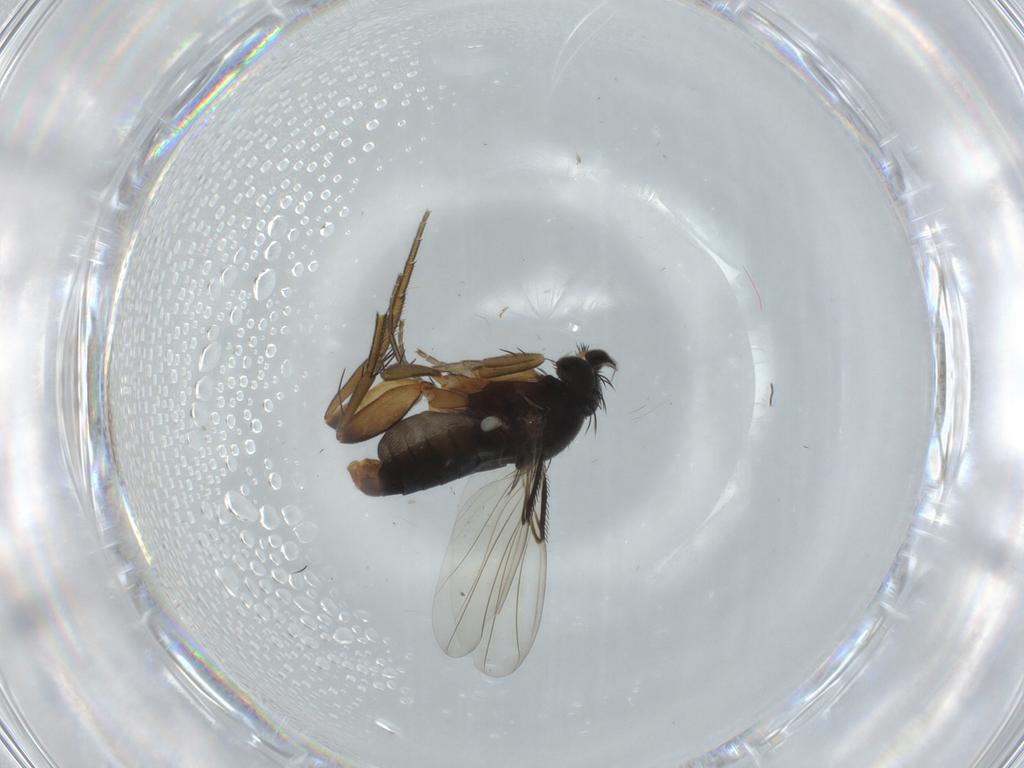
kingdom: Animalia
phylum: Arthropoda
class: Insecta
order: Diptera
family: Phoridae
